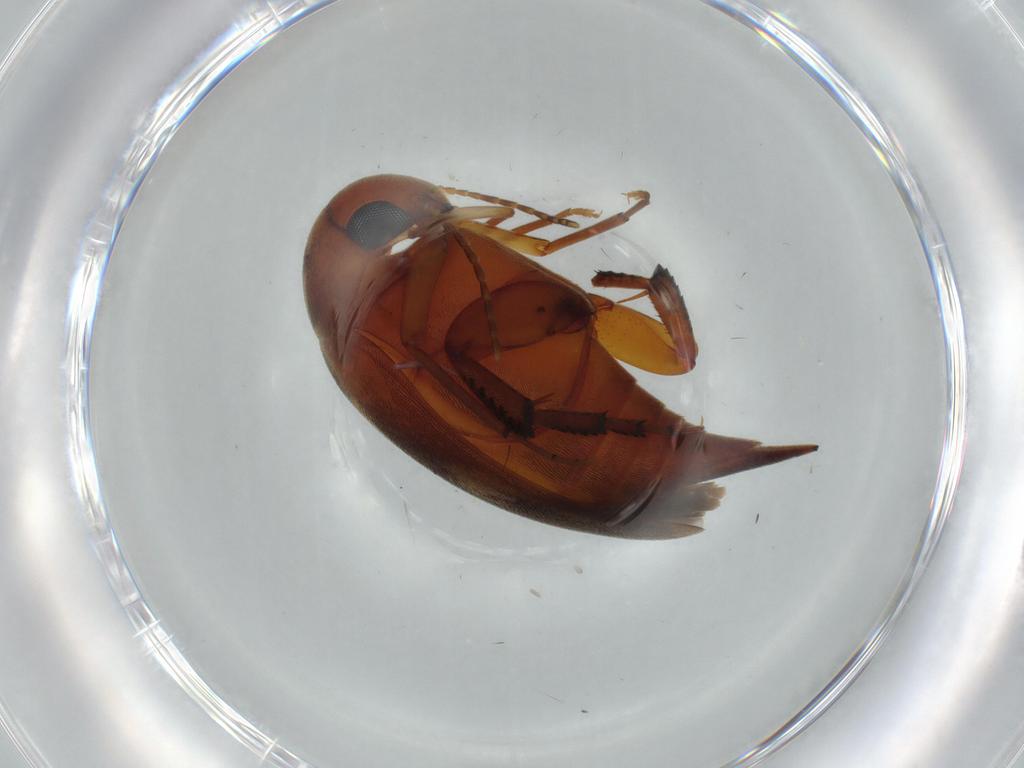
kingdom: Animalia
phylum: Arthropoda
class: Insecta
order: Coleoptera
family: Mordellidae
